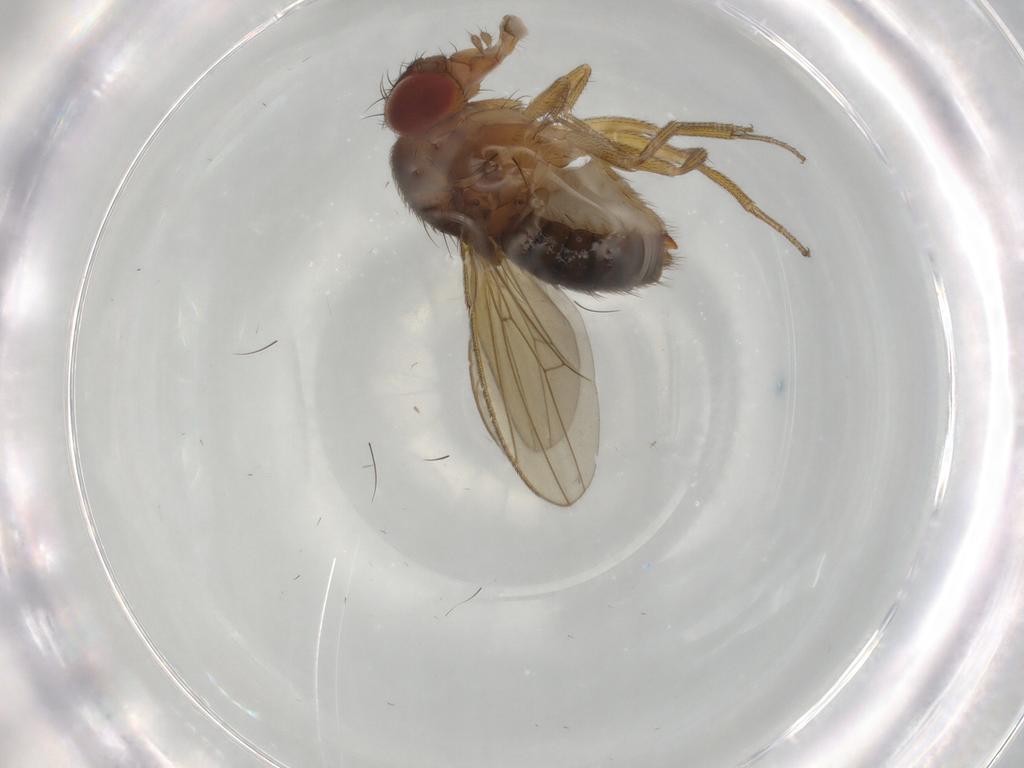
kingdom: Animalia
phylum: Arthropoda
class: Insecta
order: Diptera
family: Drosophilidae
